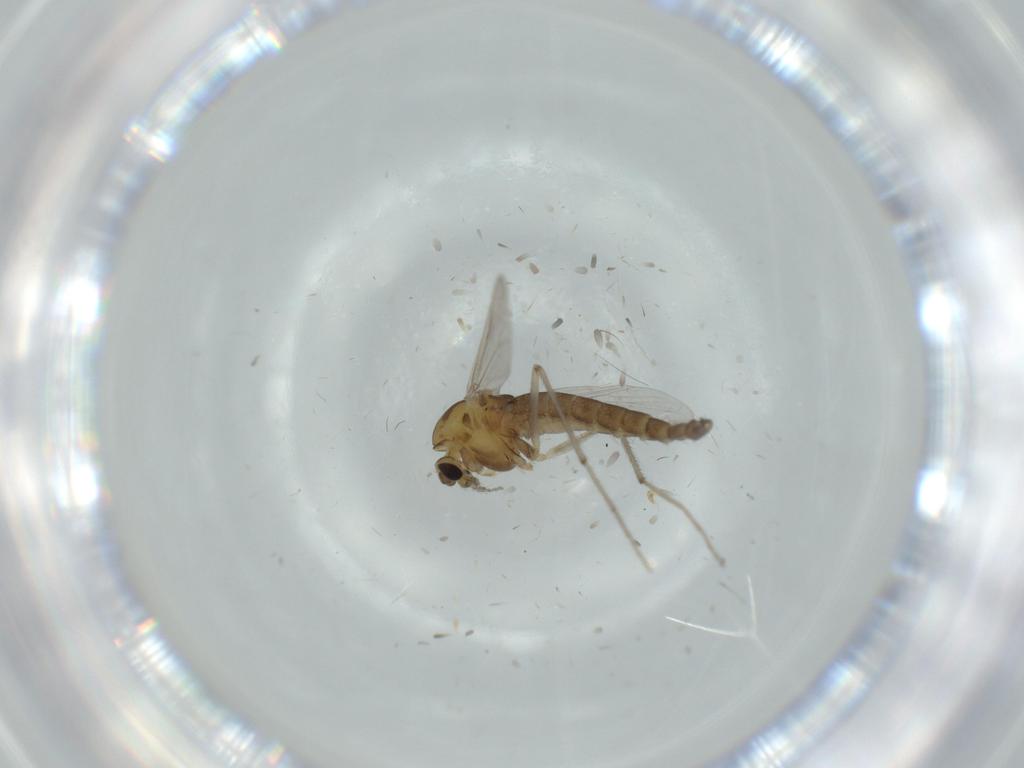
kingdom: Animalia
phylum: Arthropoda
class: Insecta
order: Diptera
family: Chironomidae
